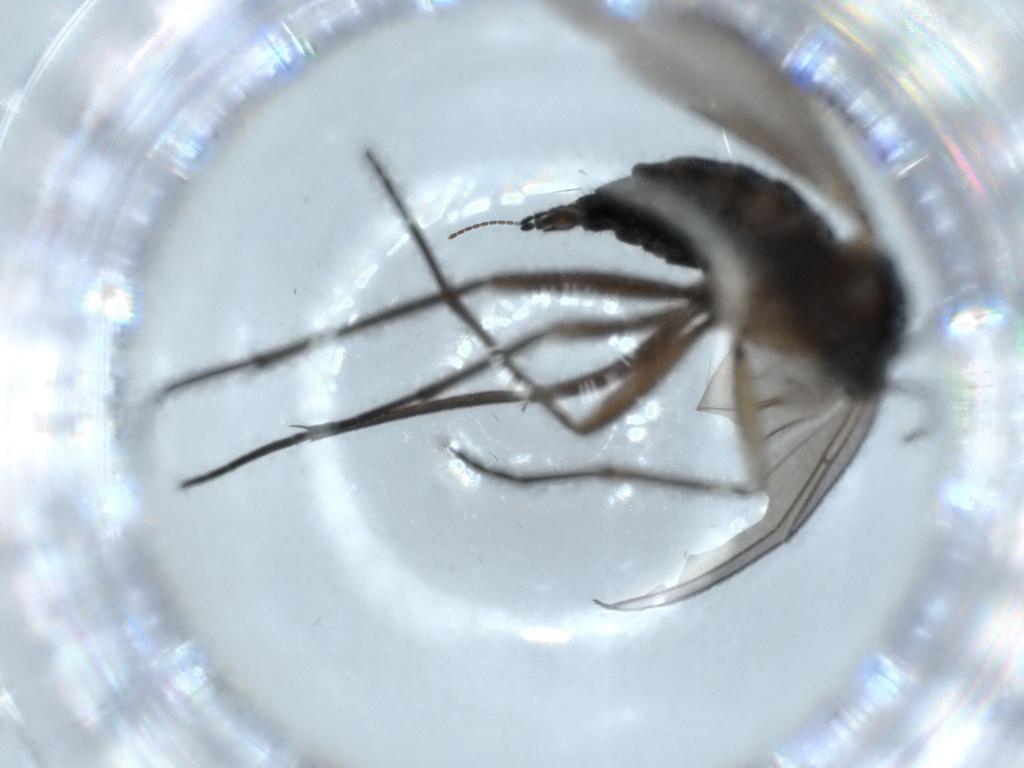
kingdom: Animalia
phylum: Arthropoda
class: Insecta
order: Diptera
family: Sciaridae
